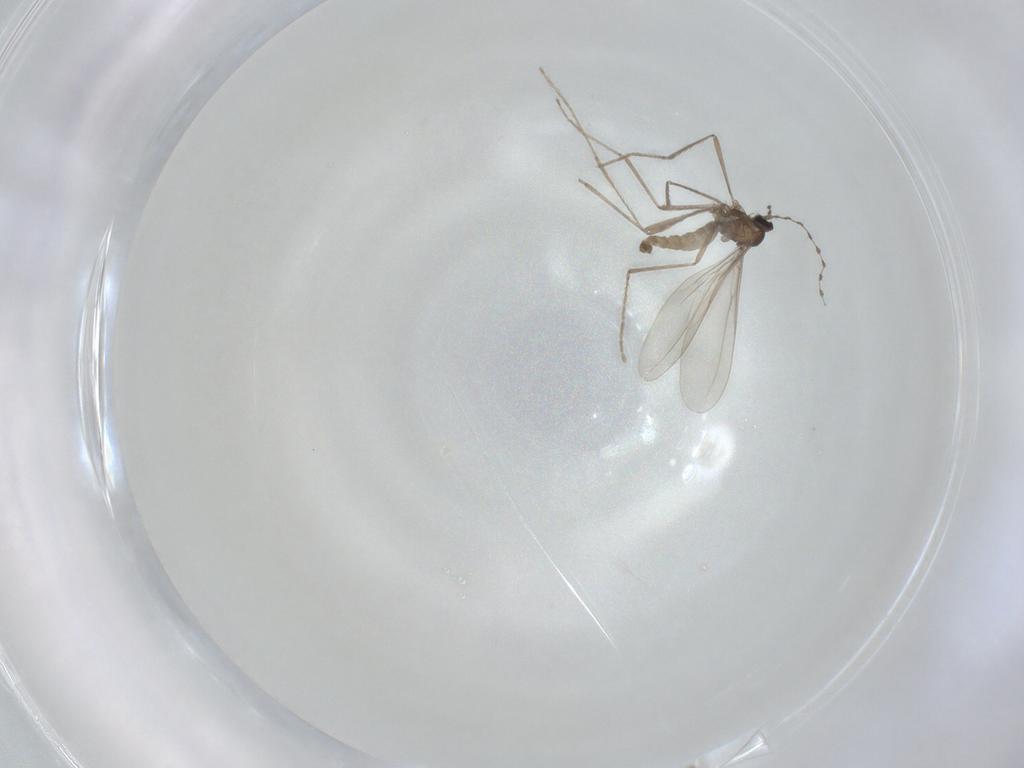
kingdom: Animalia
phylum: Arthropoda
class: Insecta
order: Diptera
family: Cecidomyiidae
